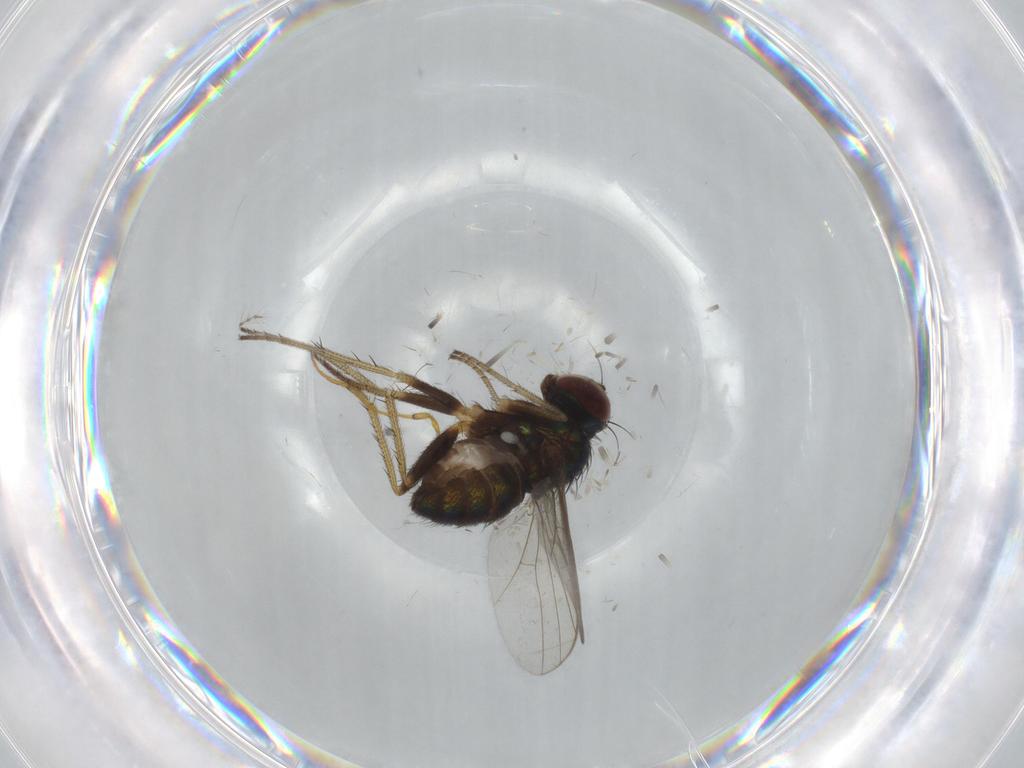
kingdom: Animalia
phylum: Arthropoda
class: Insecta
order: Diptera
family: Dolichopodidae
